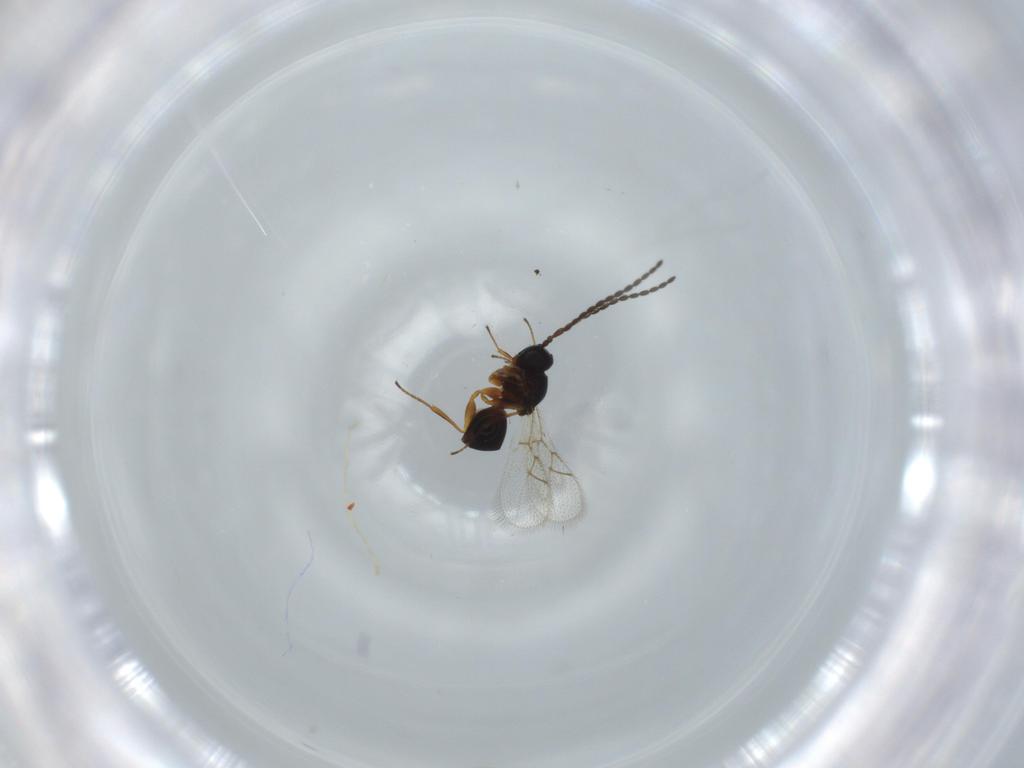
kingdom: Animalia
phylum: Arthropoda
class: Insecta
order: Hymenoptera
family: Figitidae
